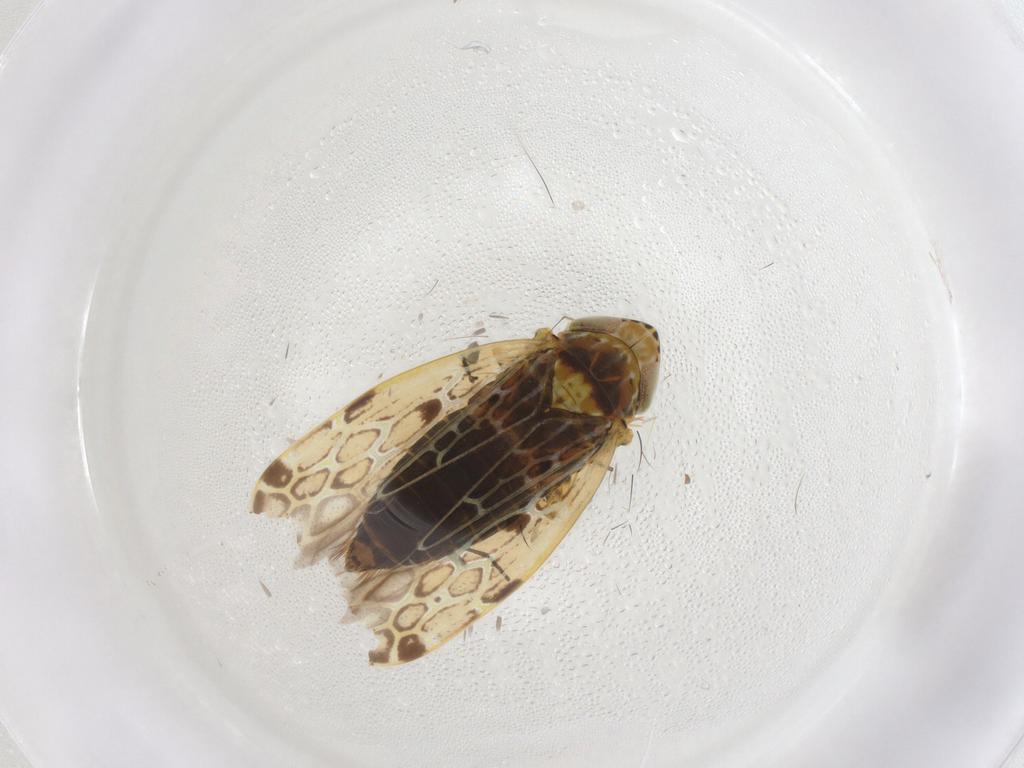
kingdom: Animalia
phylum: Arthropoda
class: Insecta
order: Hemiptera
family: Cicadellidae
